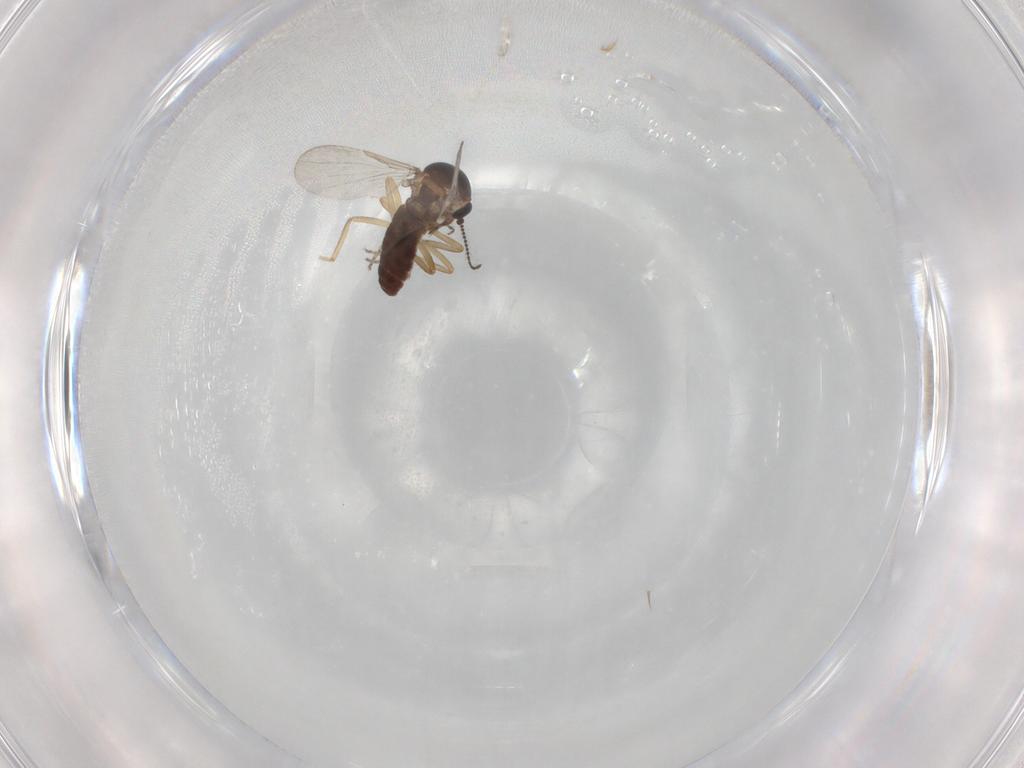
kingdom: Animalia
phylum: Arthropoda
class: Insecta
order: Diptera
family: Ceratopogonidae
